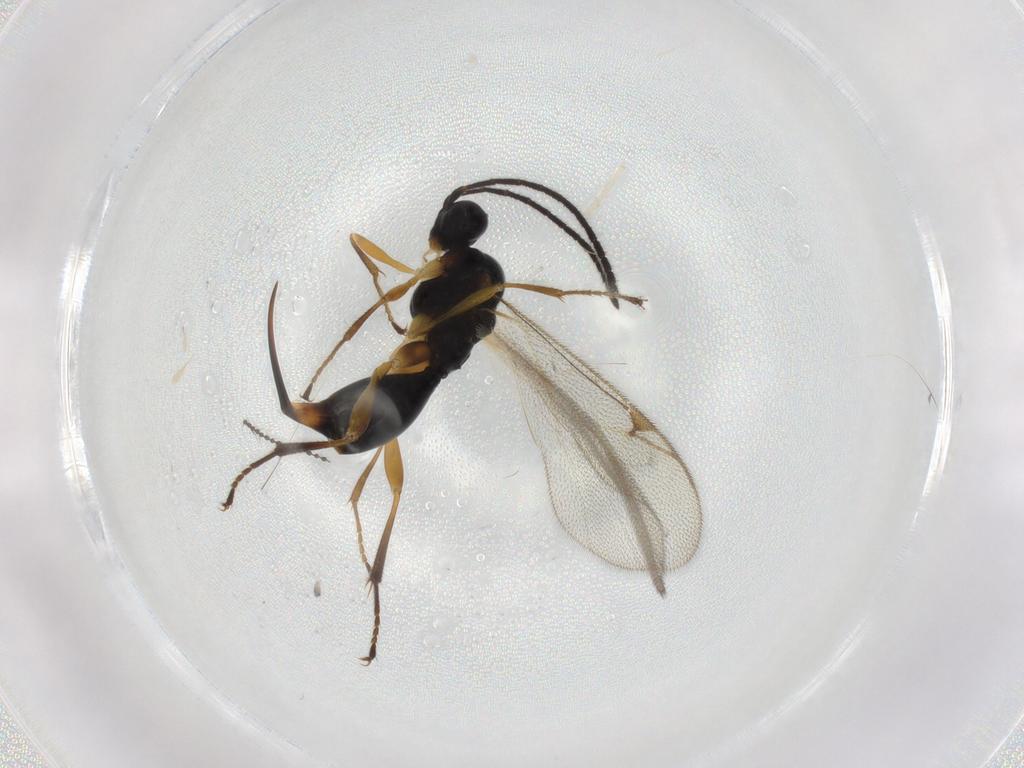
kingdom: Animalia
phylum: Arthropoda
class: Insecta
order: Hymenoptera
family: Proctotrupidae
